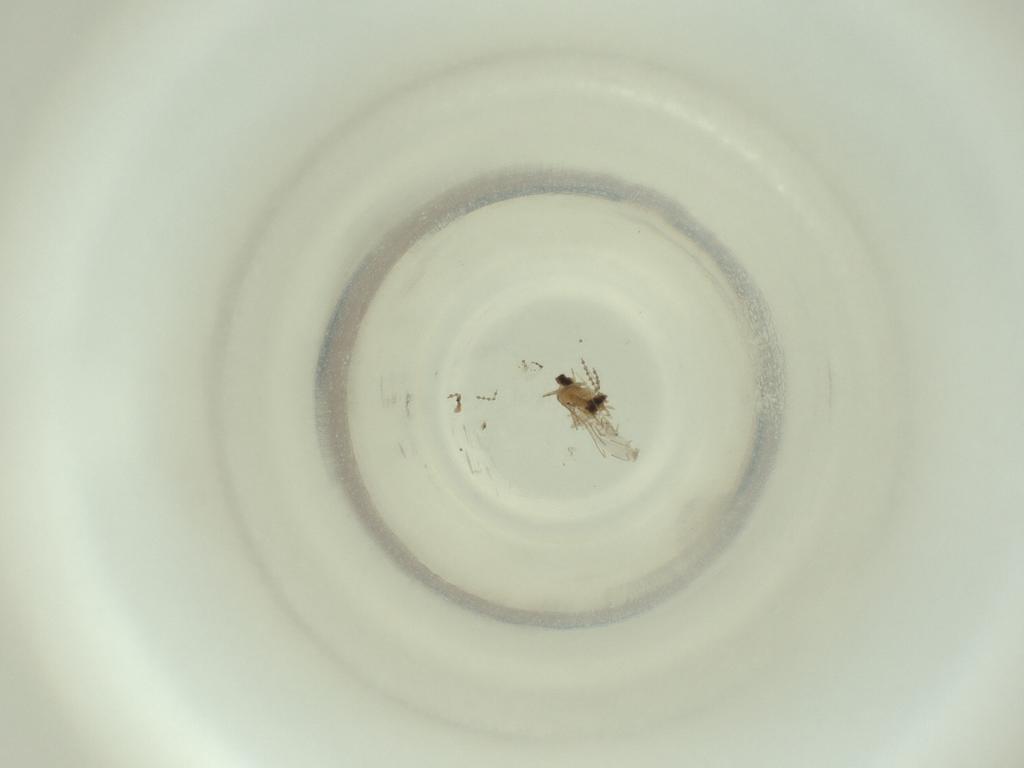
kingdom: Animalia
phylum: Arthropoda
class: Insecta
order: Diptera
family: Cecidomyiidae
